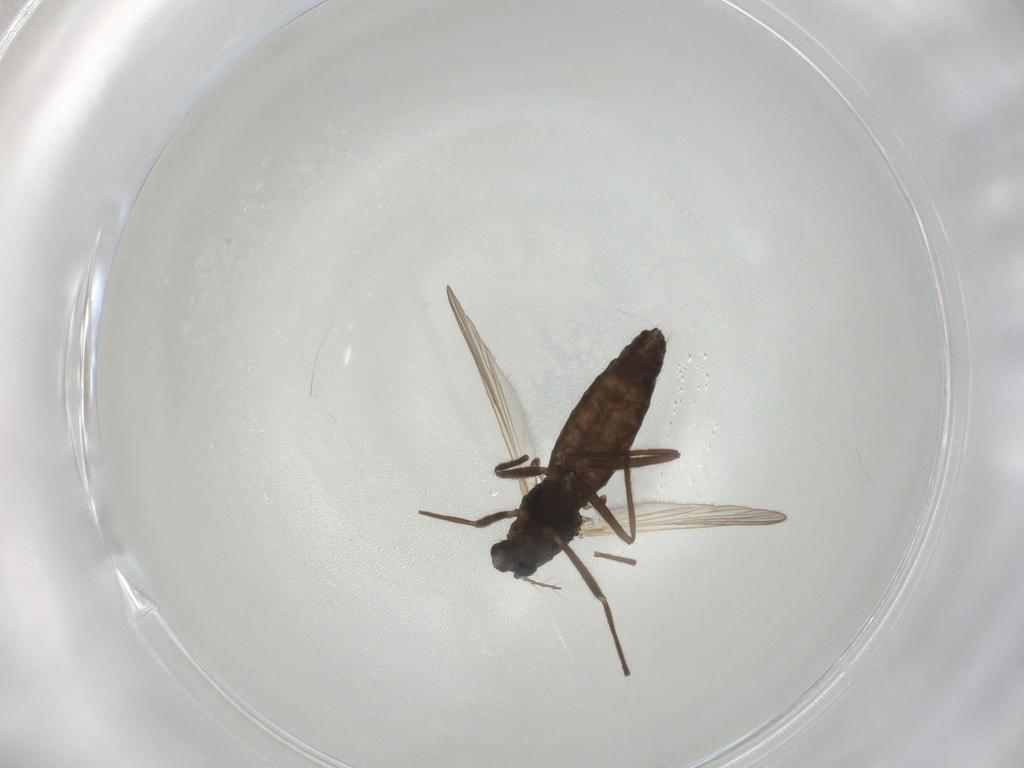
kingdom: Animalia
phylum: Arthropoda
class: Insecta
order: Diptera
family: Chironomidae
